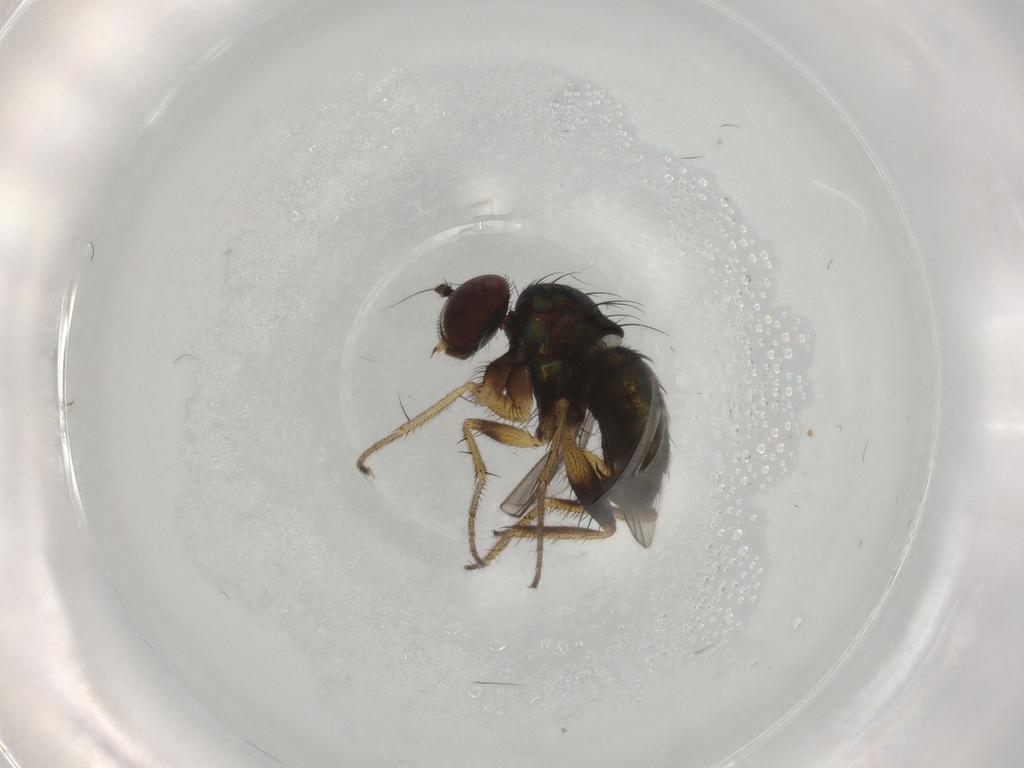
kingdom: Animalia
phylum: Arthropoda
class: Insecta
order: Diptera
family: Dolichopodidae
